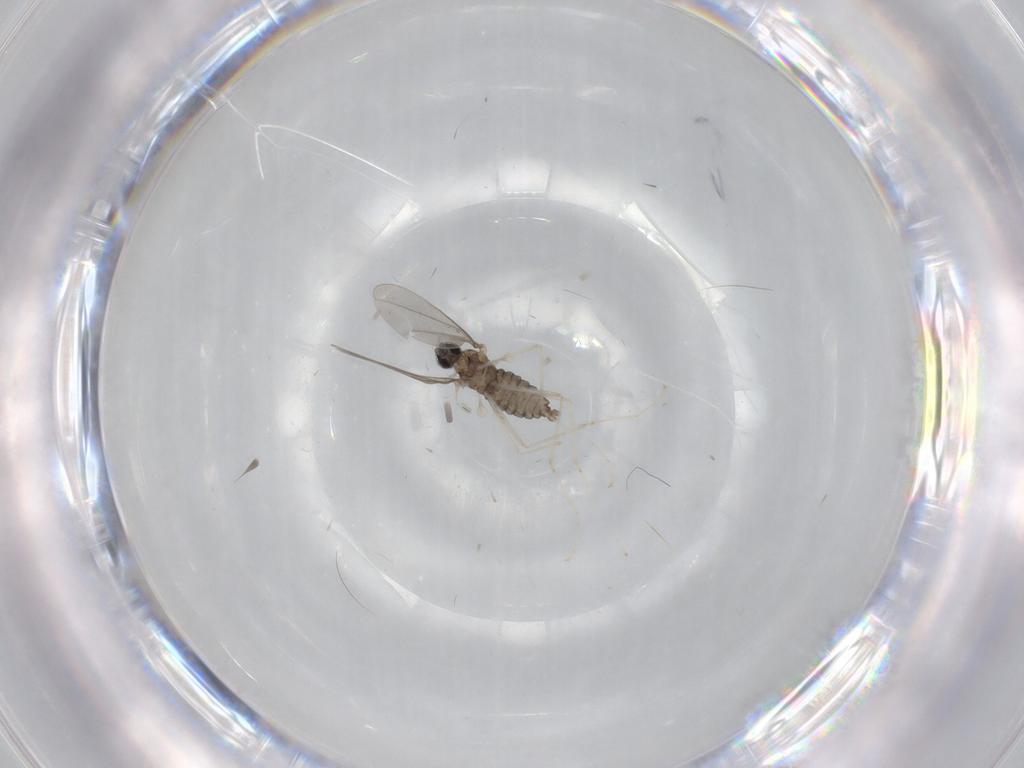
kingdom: Animalia
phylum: Arthropoda
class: Insecta
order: Diptera
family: Cecidomyiidae
